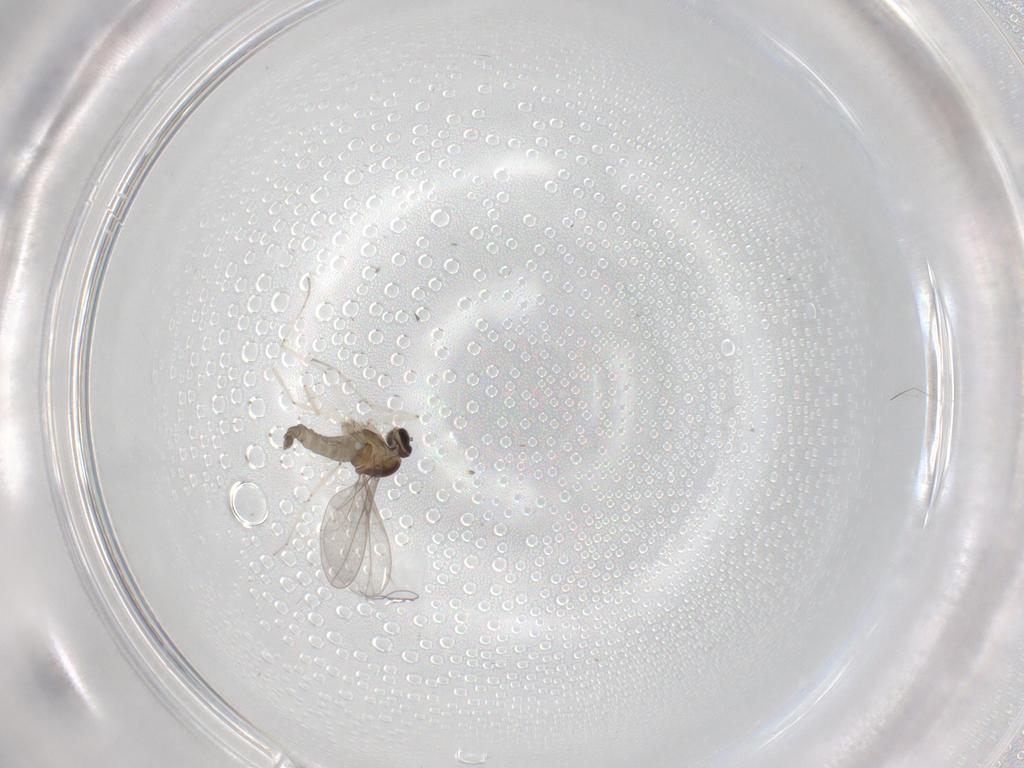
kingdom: Animalia
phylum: Arthropoda
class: Insecta
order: Diptera
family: Cecidomyiidae
